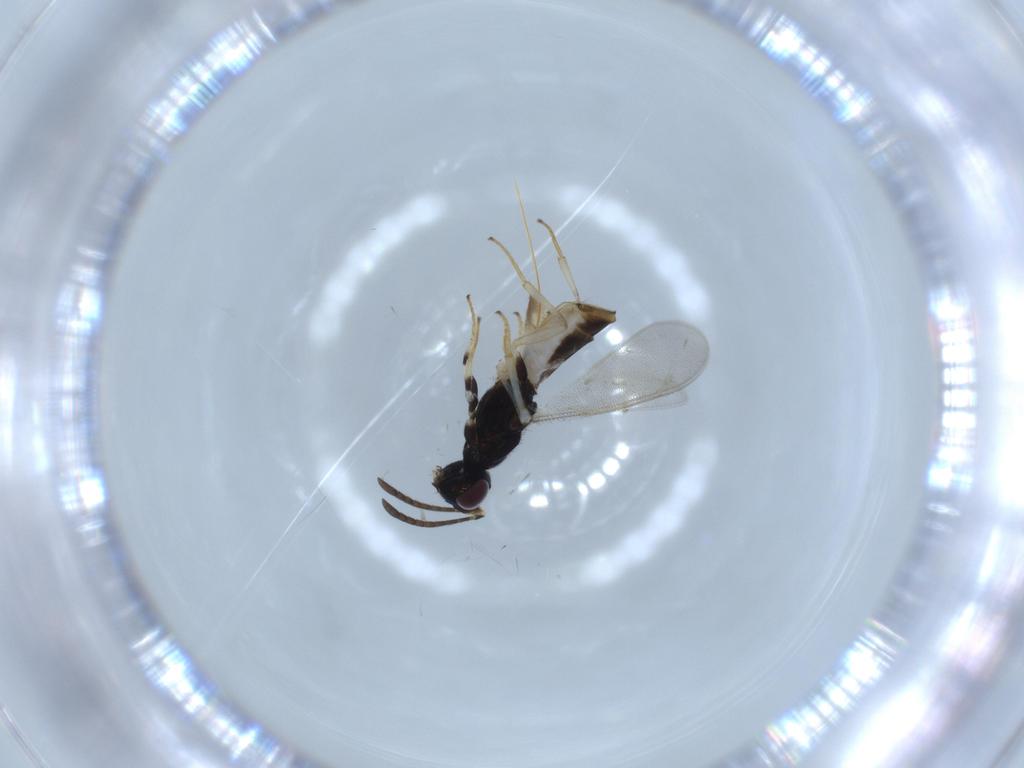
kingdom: Animalia
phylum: Arthropoda
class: Insecta
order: Hymenoptera
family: Eupelmidae
